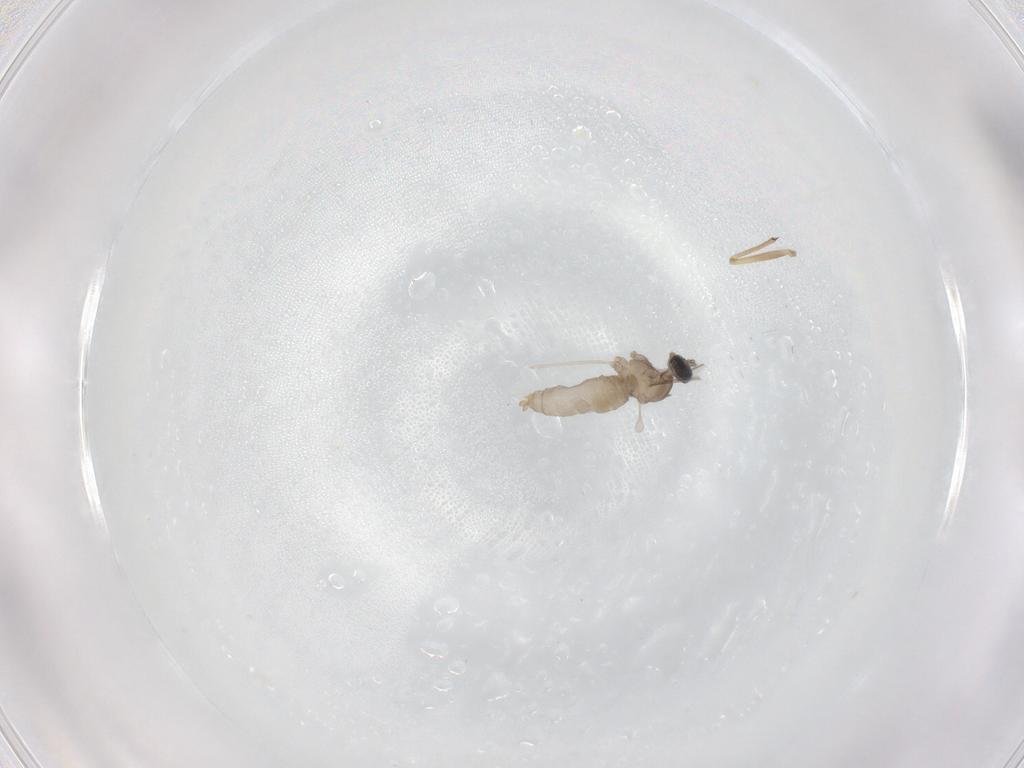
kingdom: Animalia
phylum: Arthropoda
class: Insecta
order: Diptera
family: Cecidomyiidae
